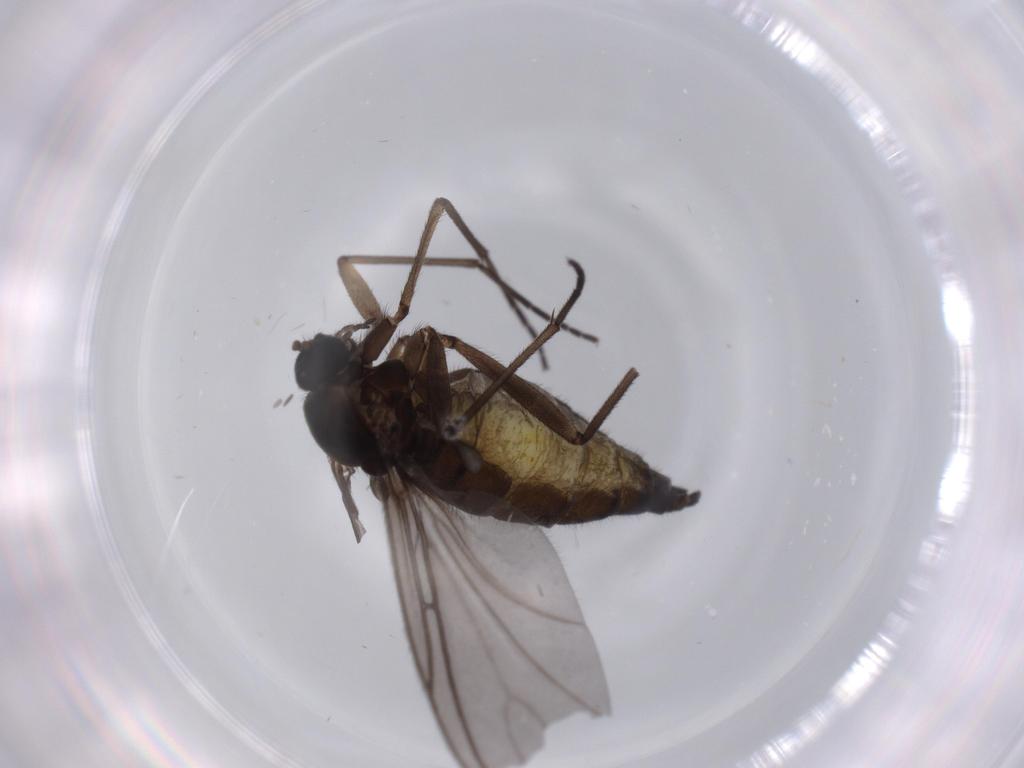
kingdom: Animalia
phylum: Arthropoda
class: Insecta
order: Diptera
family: Sciaridae
